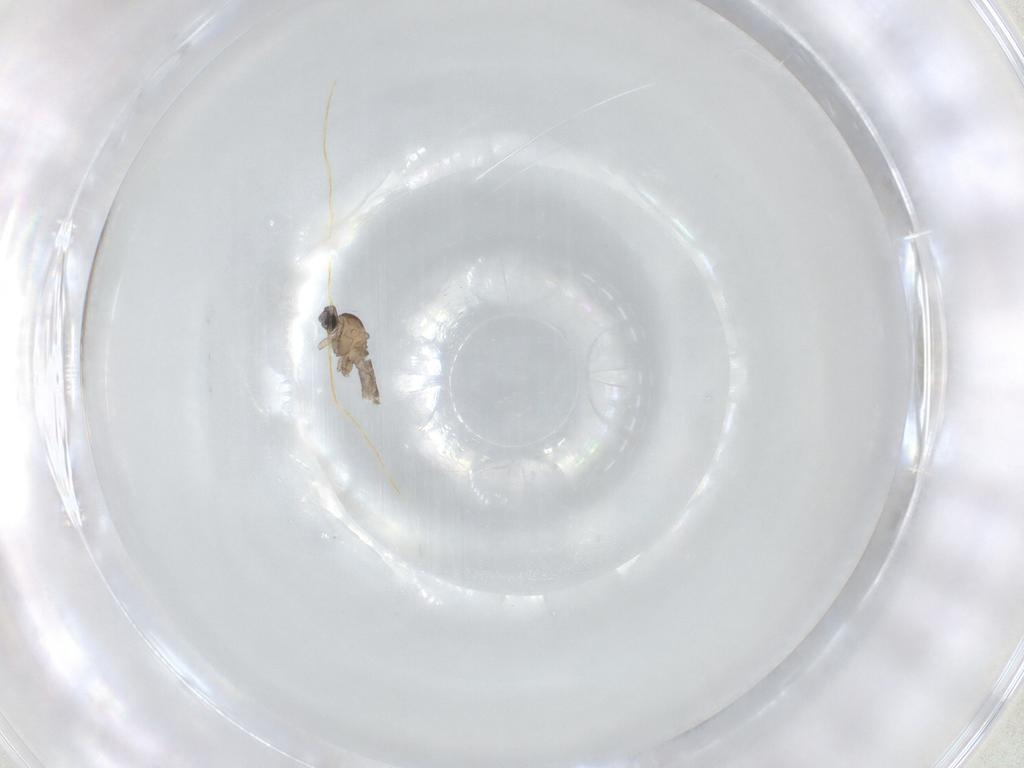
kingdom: Animalia
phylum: Arthropoda
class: Insecta
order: Diptera
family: Cecidomyiidae
